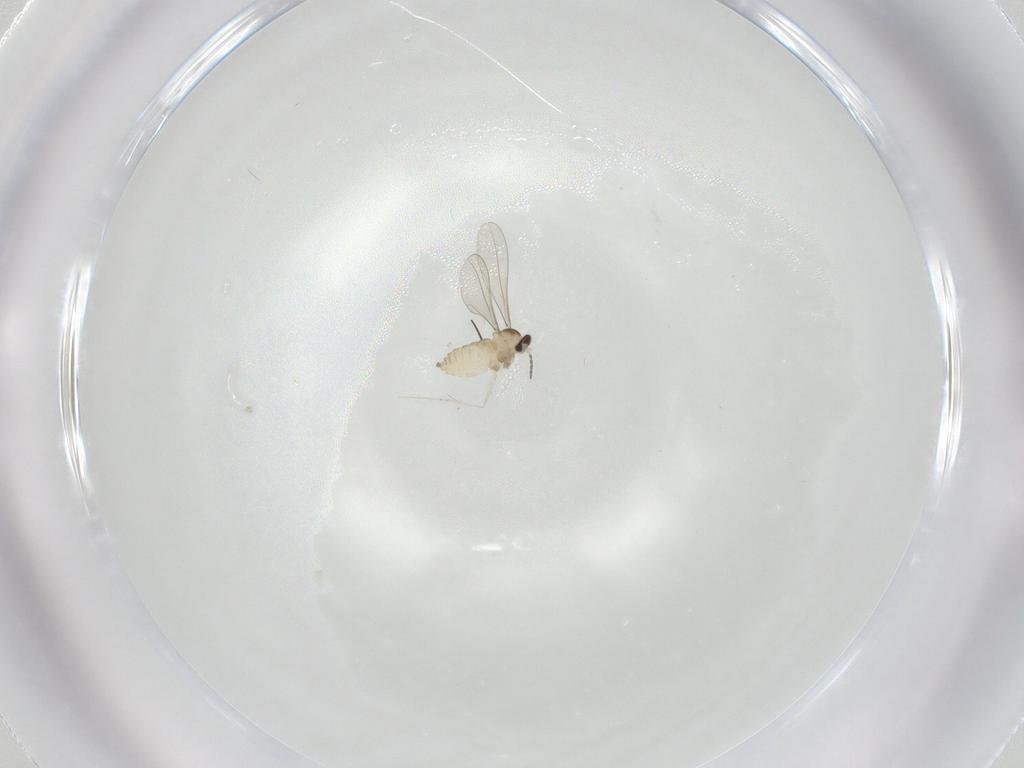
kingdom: Animalia
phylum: Arthropoda
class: Insecta
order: Diptera
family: Cecidomyiidae
